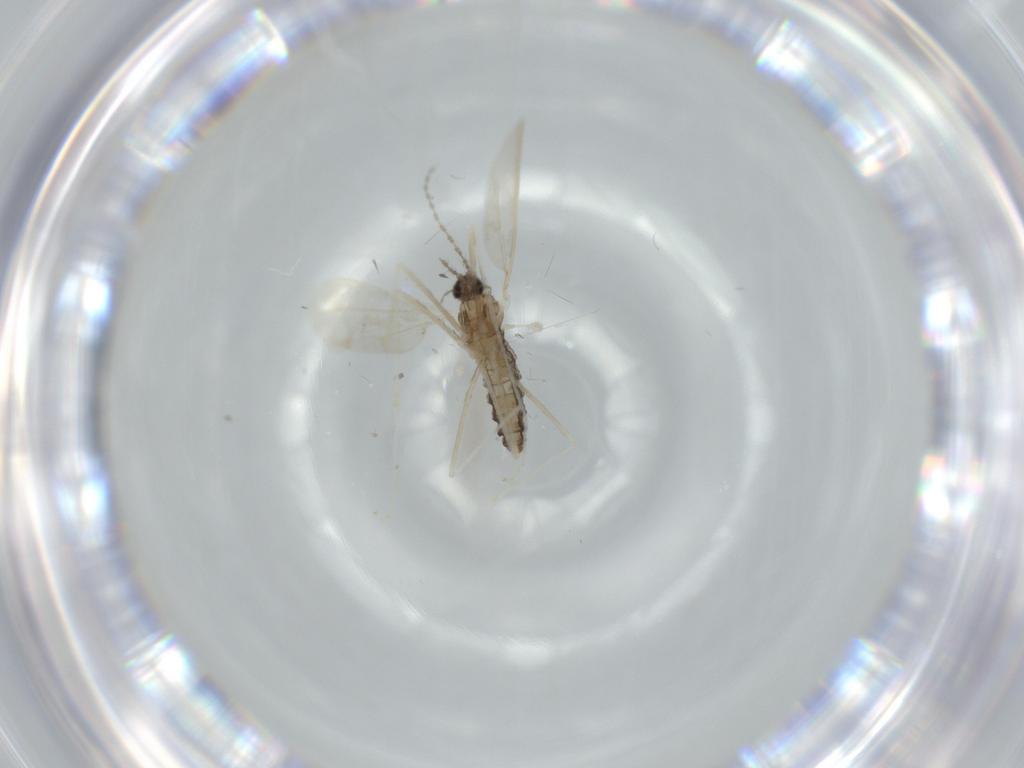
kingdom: Animalia
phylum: Arthropoda
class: Insecta
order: Diptera
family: Cecidomyiidae
